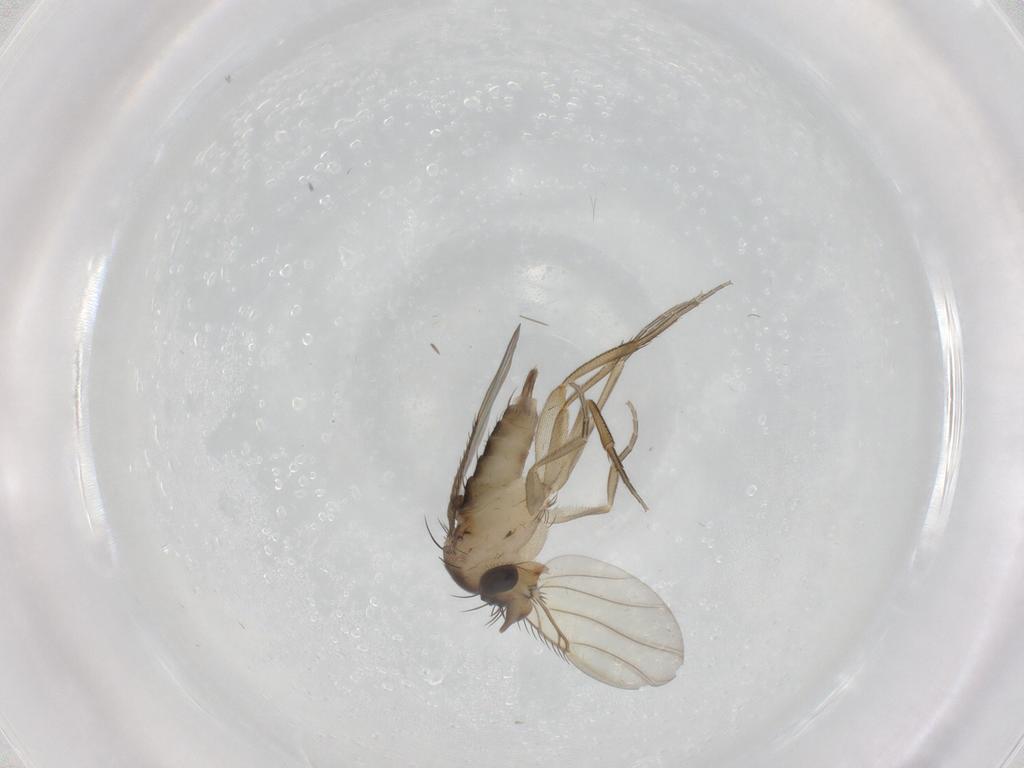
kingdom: Animalia
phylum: Arthropoda
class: Insecta
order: Diptera
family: Phoridae
